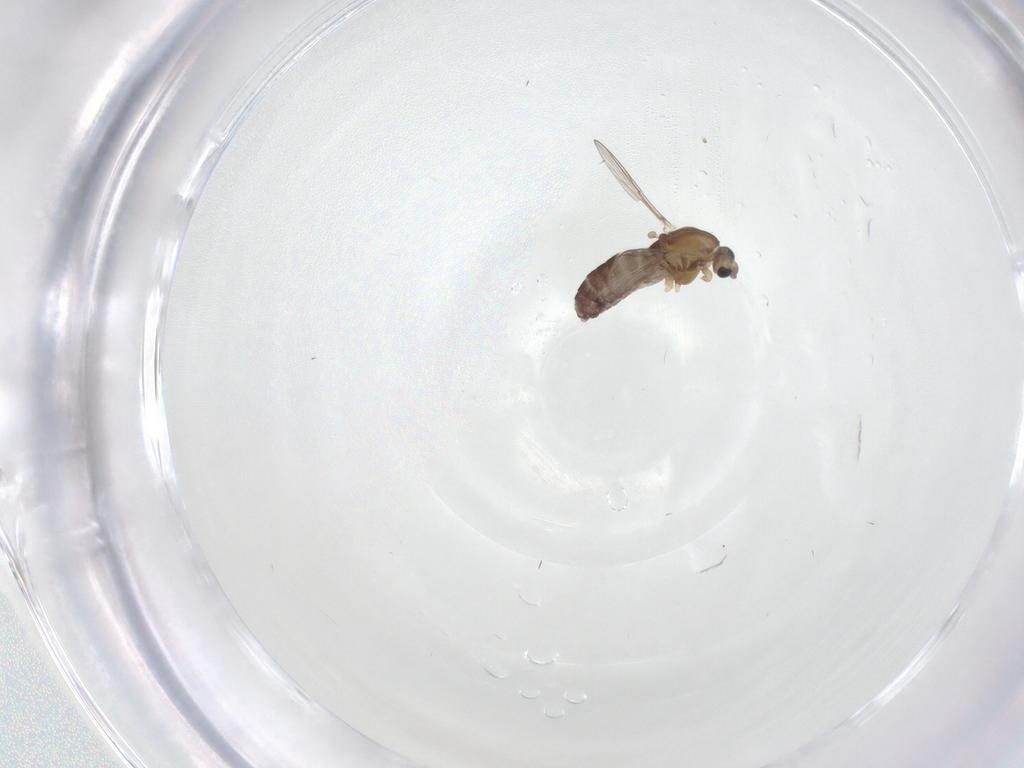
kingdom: Animalia
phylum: Arthropoda
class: Insecta
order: Diptera
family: Chironomidae
